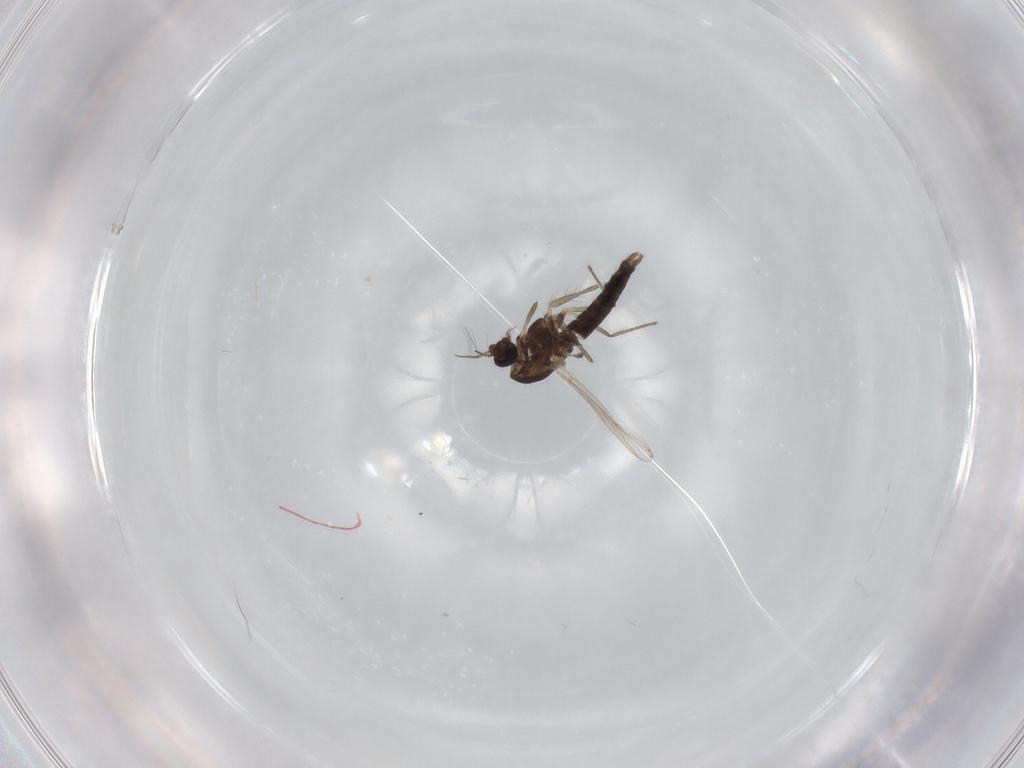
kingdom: Animalia
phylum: Arthropoda
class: Insecta
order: Diptera
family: Chironomidae
